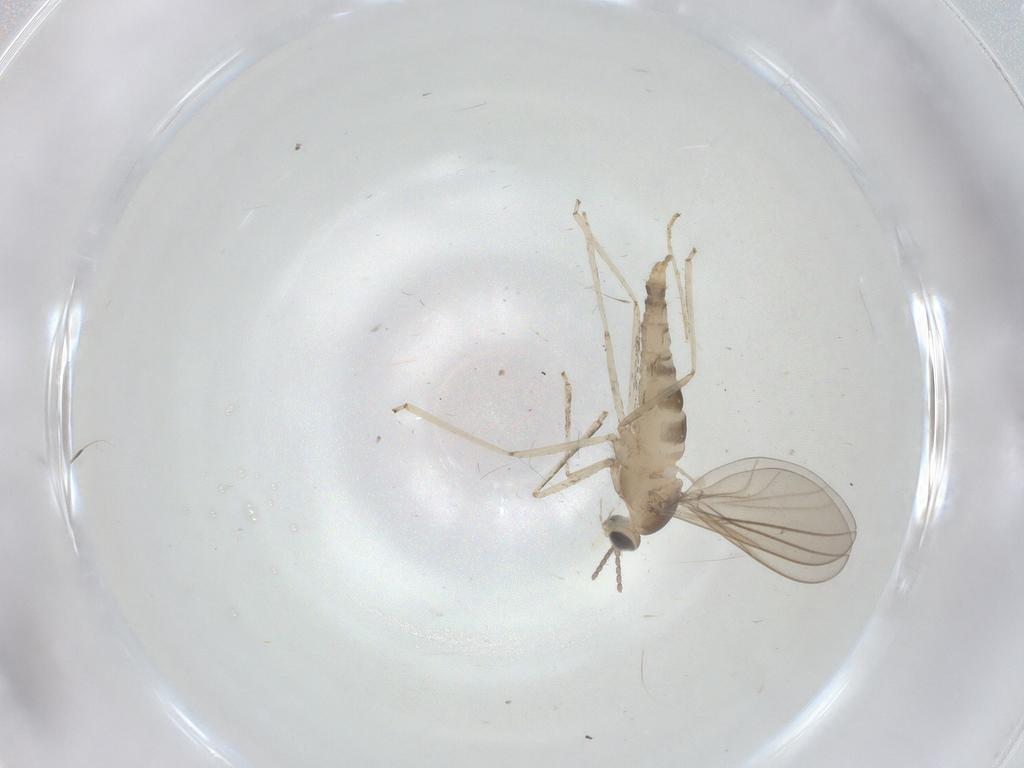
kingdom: Animalia
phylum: Arthropoda
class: Insecta
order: Diptera
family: Cecidomyiidae
